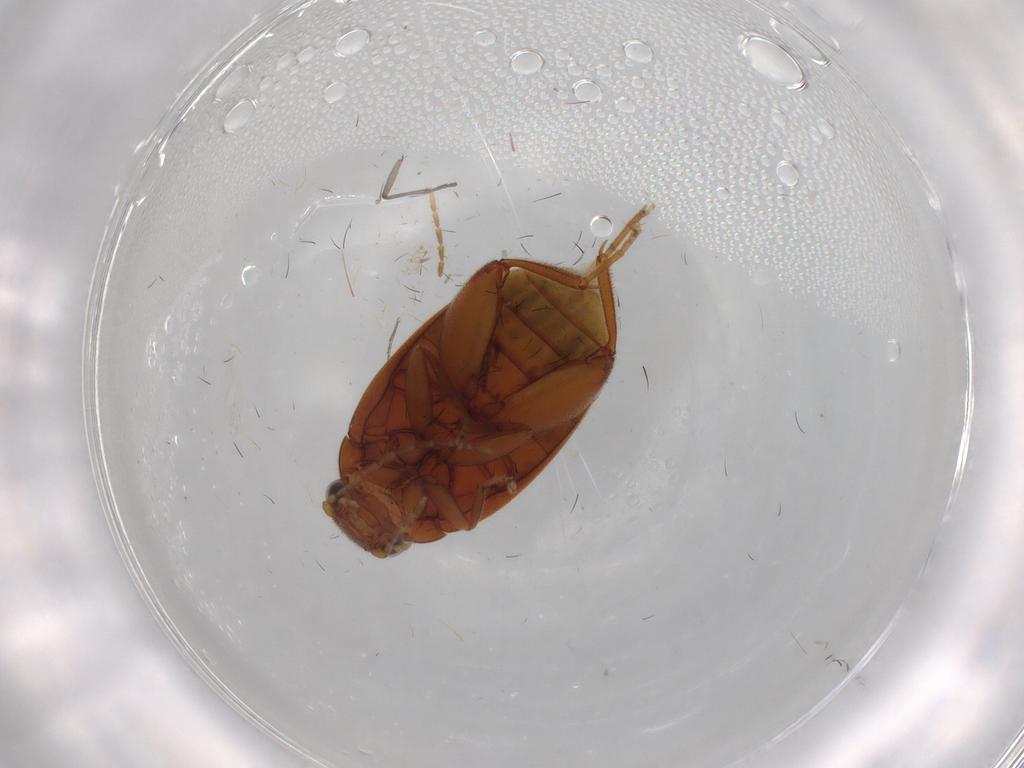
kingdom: Animalia
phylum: Arthropoda
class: Insecta
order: Coleoptera
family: Scirtidae
